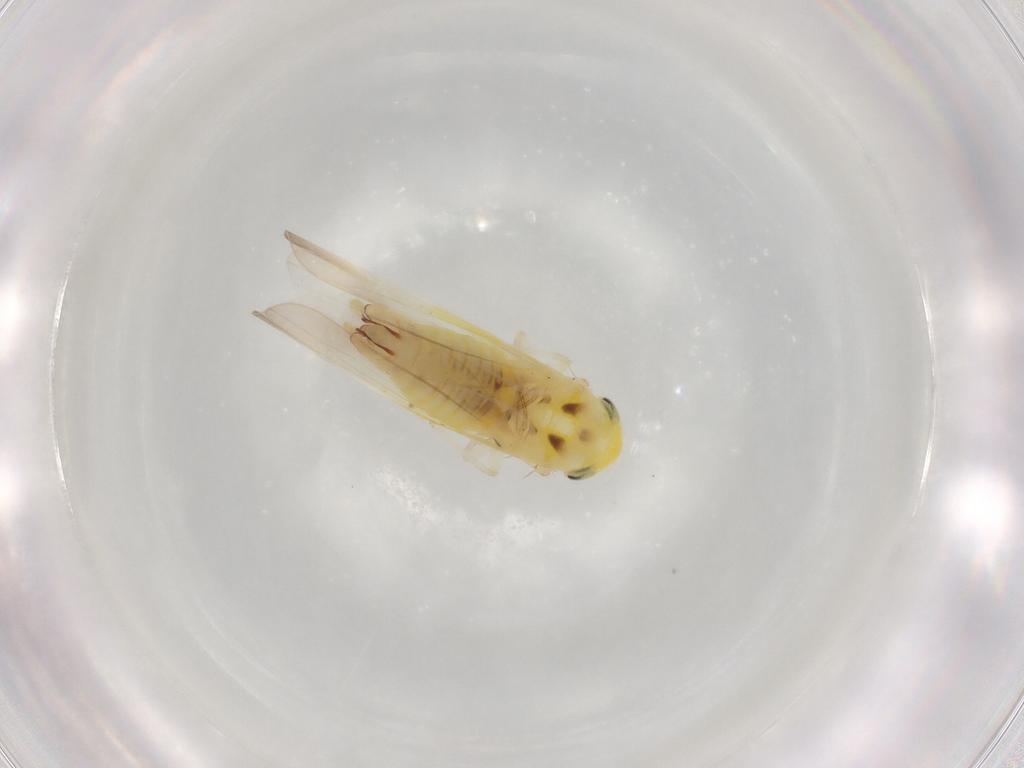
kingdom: Animalia
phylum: Arthropoda
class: Insecta
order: Hemiptera
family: Cicadellidae
